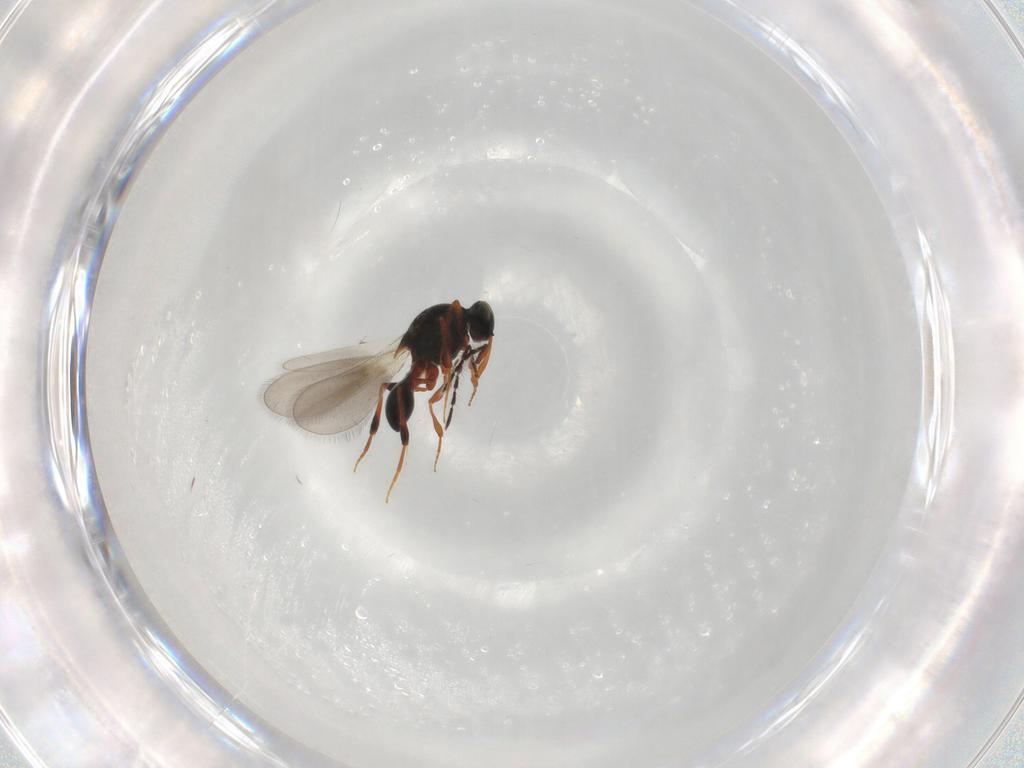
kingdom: Animalia
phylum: Arthropoda
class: Insecta
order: Hymenoptera
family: Platygastridae
